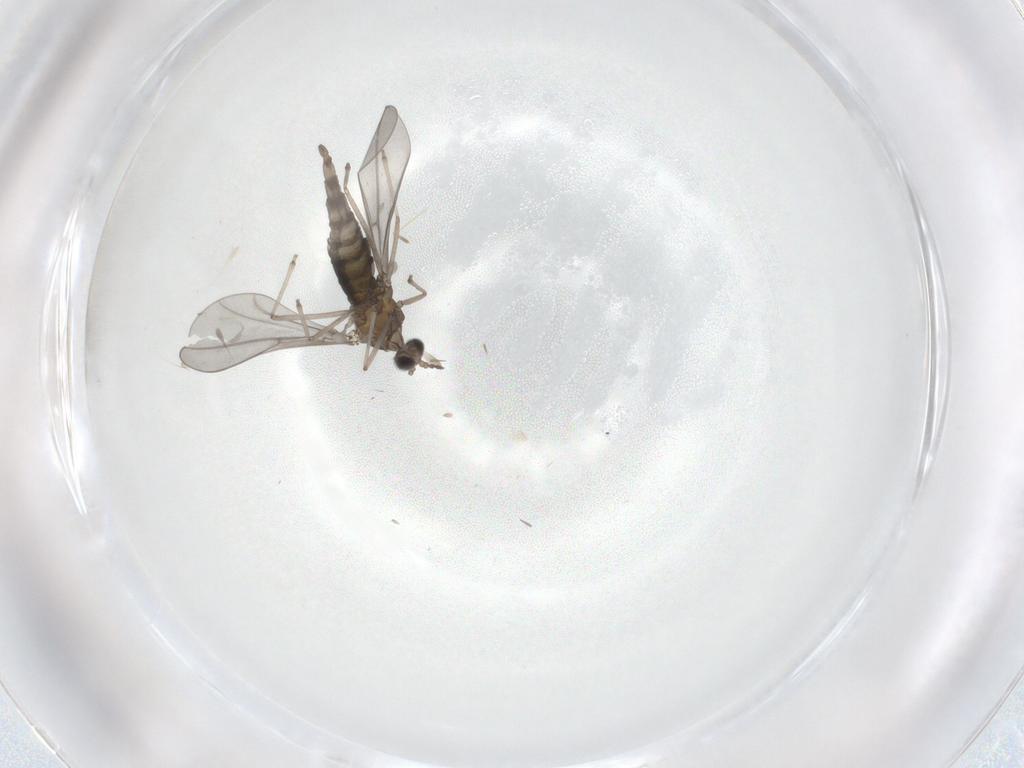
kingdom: Animalia
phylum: Arthropoda
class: Insecta
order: Diptera
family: Cecidomyiidae
